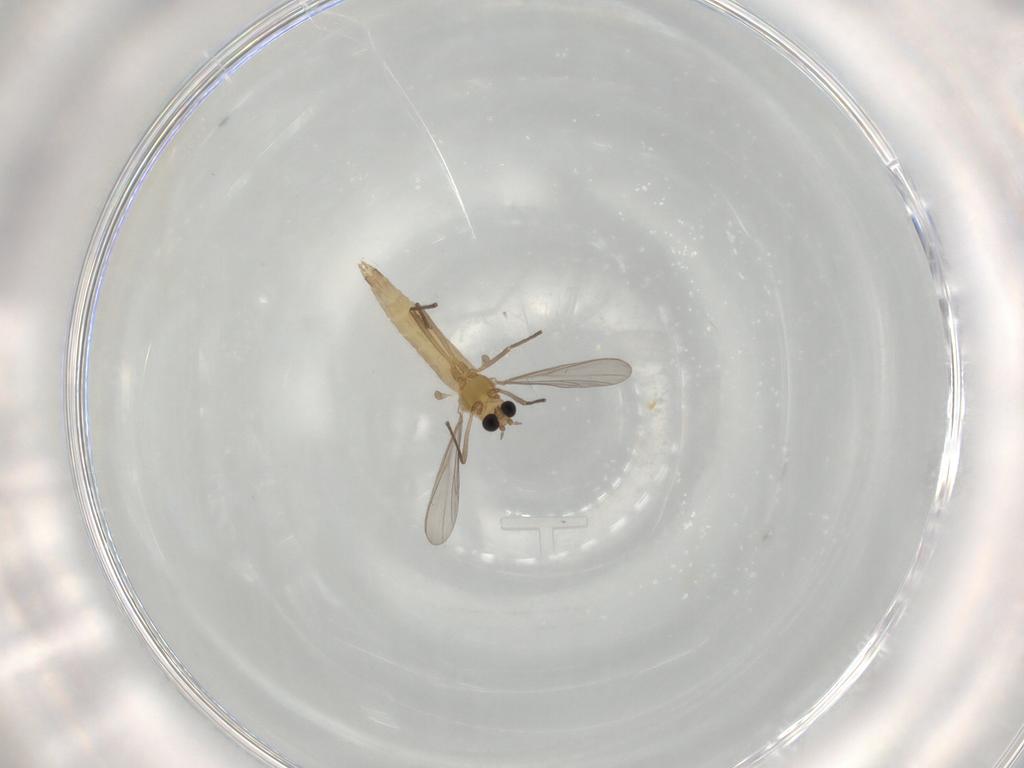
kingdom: Animalia
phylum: Arthropoda
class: Insecta
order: Diptera
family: Chironomidae
